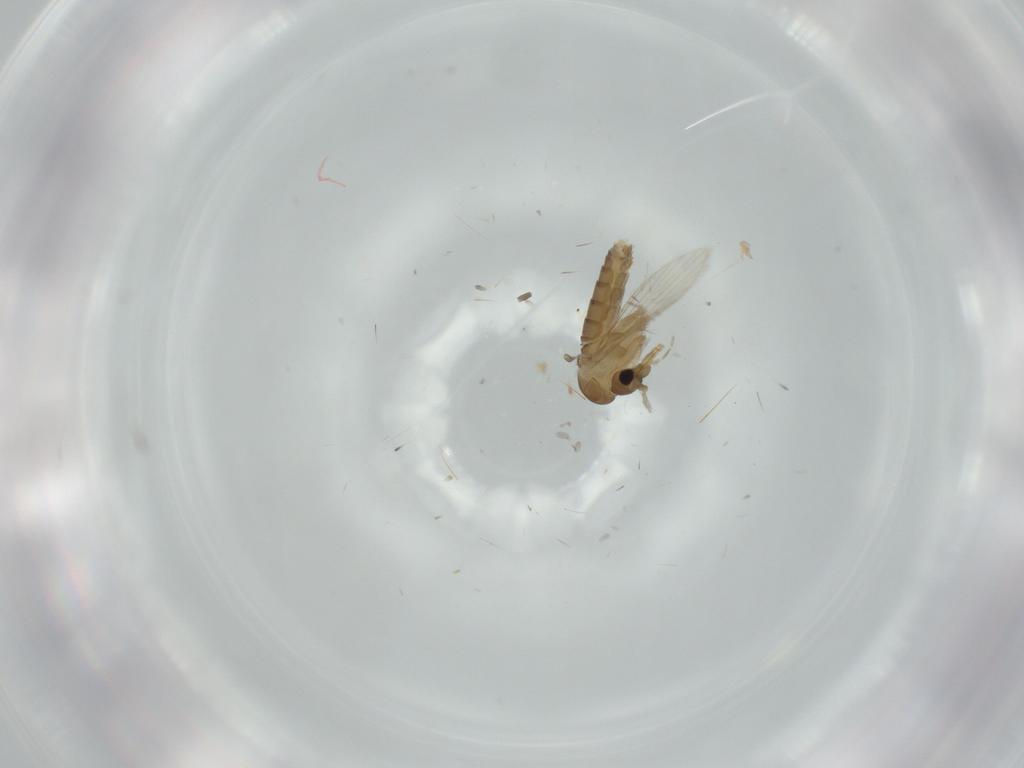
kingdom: Animalia
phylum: Arthropoda
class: Insecta
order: Diptera
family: Psychodidae
